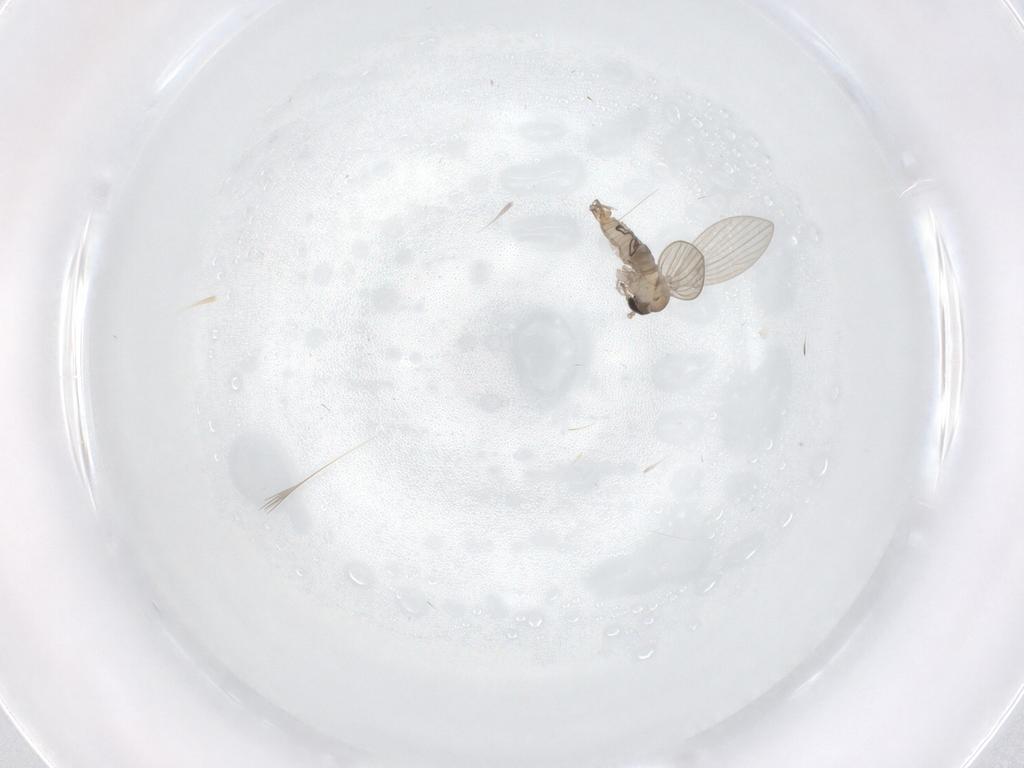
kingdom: Animalia
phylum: Arthropoda
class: Insecta
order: Diptera
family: Psychodidae
